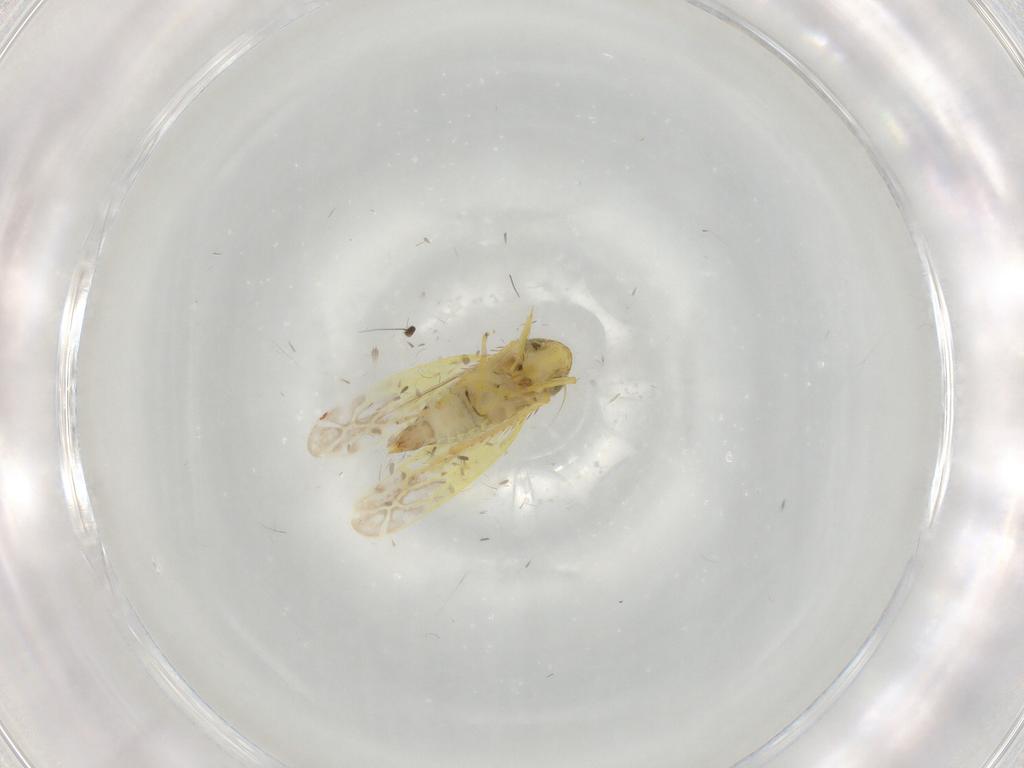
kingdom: Animalia
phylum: Arthropoda
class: Insecta
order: Hemiptera
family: Cicadellidae
